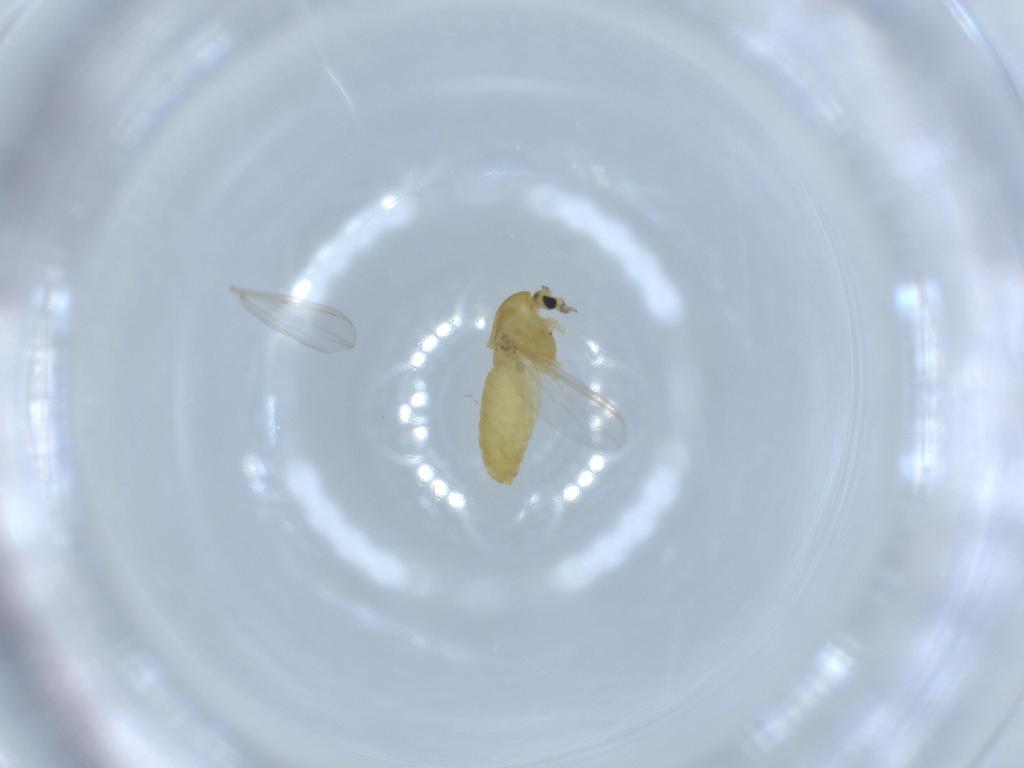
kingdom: Animalia
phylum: Arthropoda
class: Insecta
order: Diptera
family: Chironomidae
